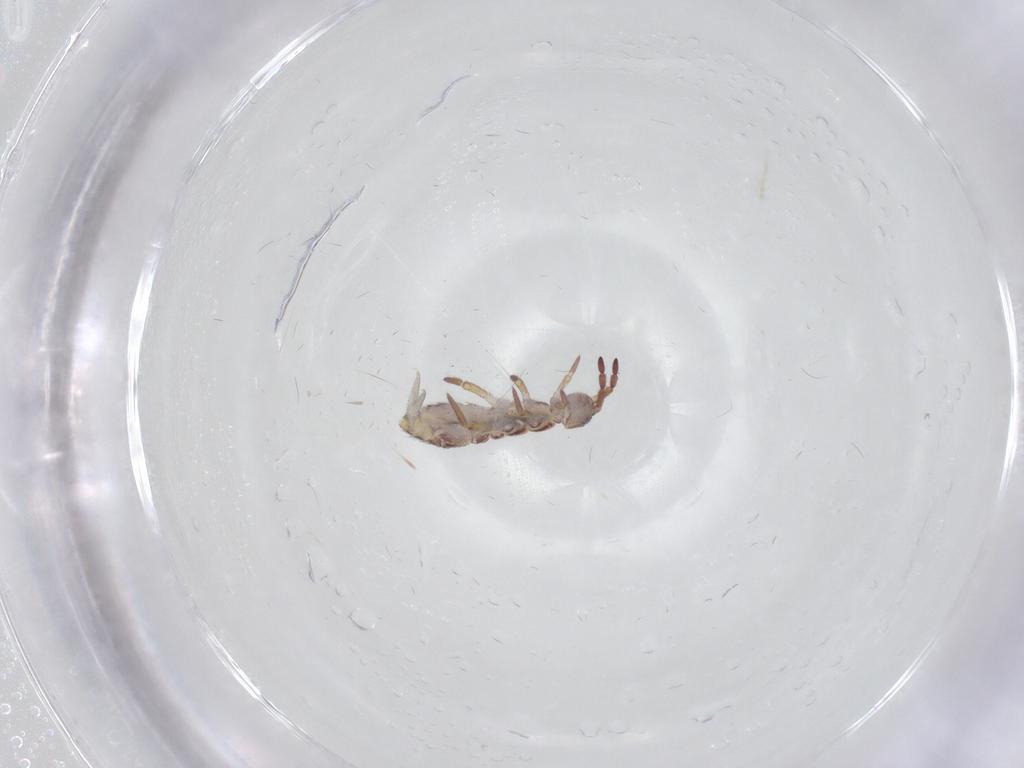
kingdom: Animalia
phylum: Arthropoda
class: Collembola
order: Entomobryomorpha
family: Isotomidae
